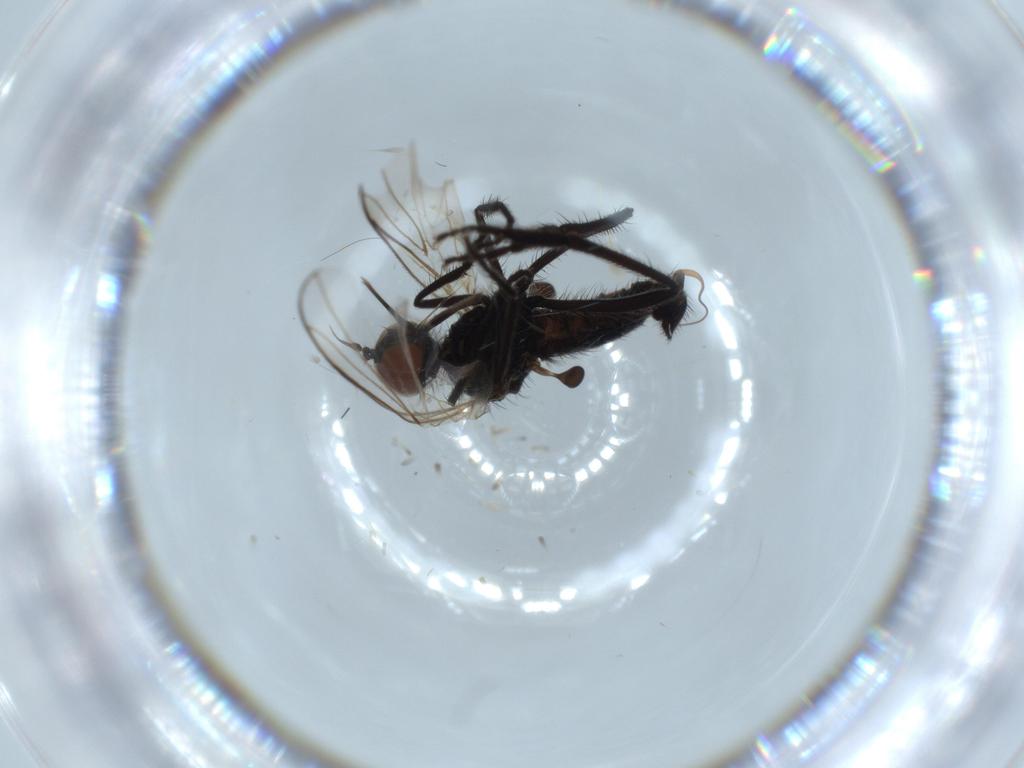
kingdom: Animalia
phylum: Arthropoda
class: Insecta
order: Diptera
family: Empididae
